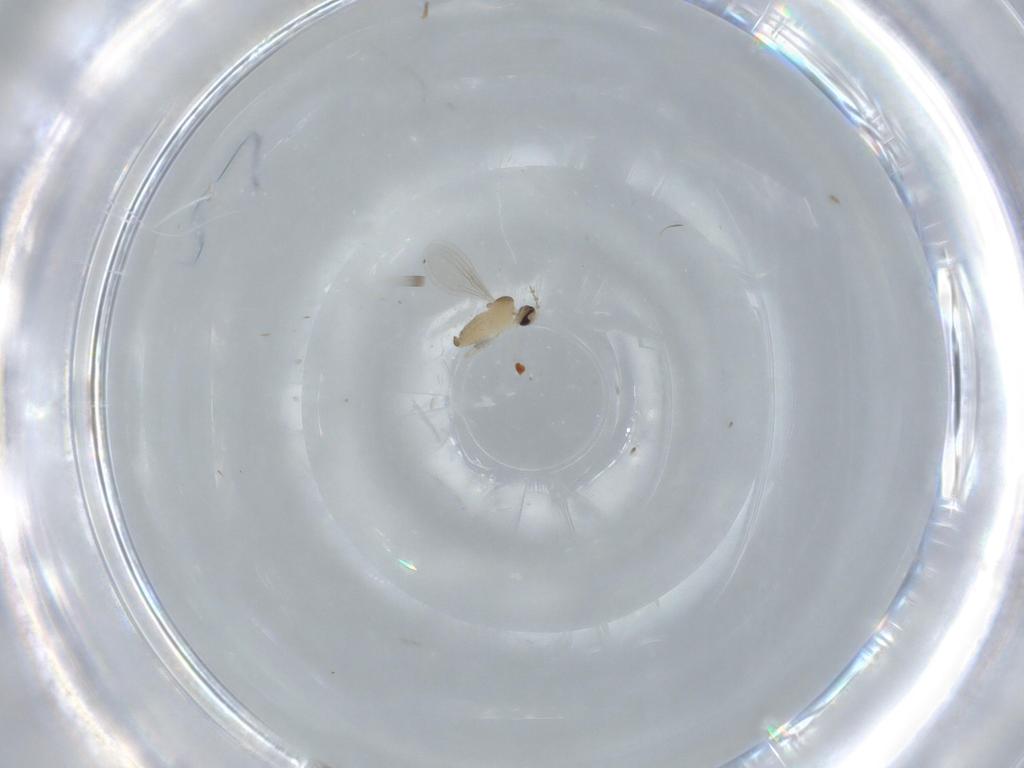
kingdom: Animalia
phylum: Arthropoda
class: Insecta
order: Diptera
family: Cecidomyiidae
